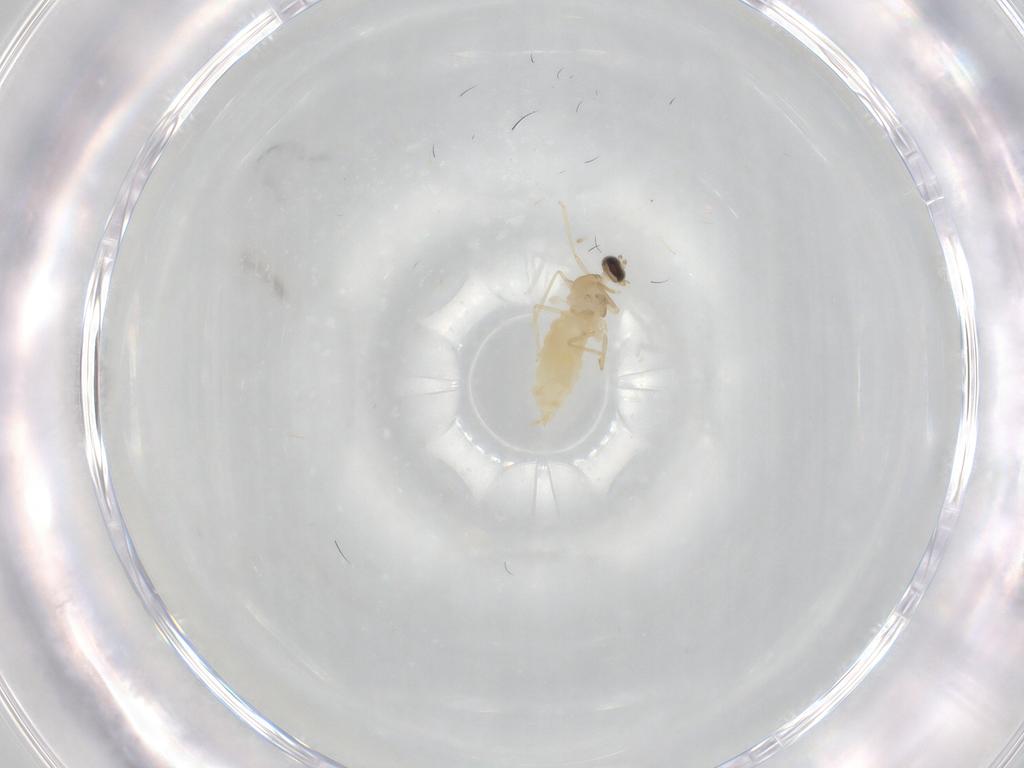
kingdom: Animalia
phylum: Arthropoda
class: Insecta
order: Diptera
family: Cecidomyiidae
